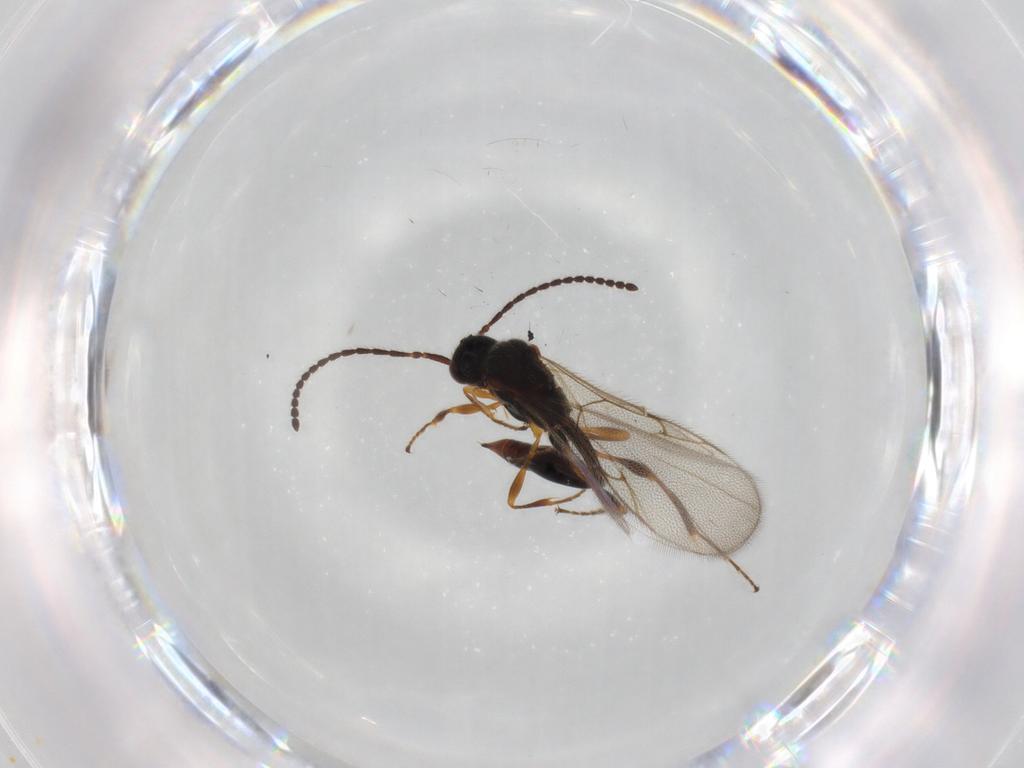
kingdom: Animalia
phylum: Arthropoda
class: Insecta
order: Hymenoptera
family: Diapriidae
